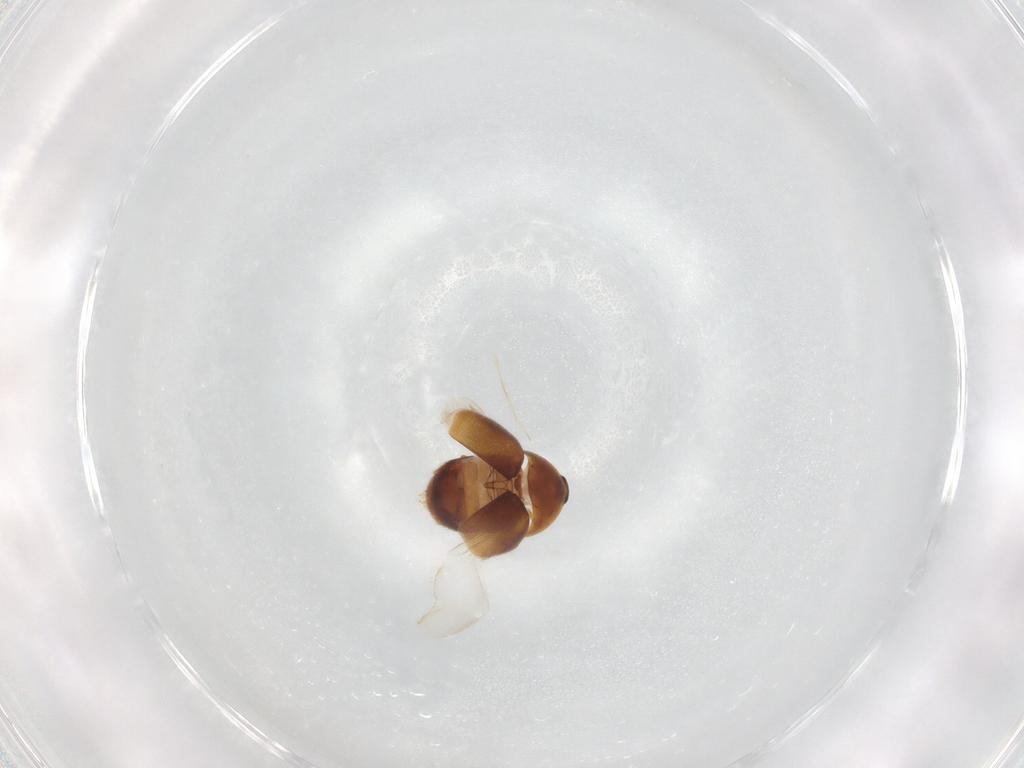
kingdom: Animalia
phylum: Arthropoda
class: Insecta
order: Coleoptera
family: Corylophidae
